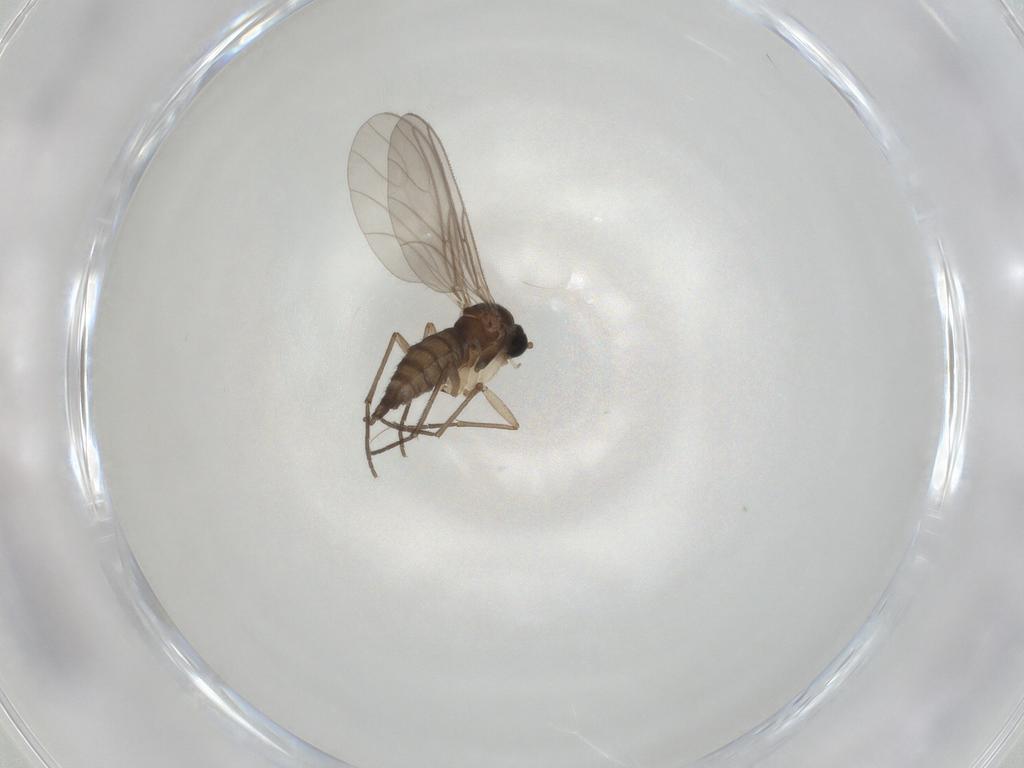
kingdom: Animalia
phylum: Arthropoda
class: Insecta
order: Diptera
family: Sciaridae
